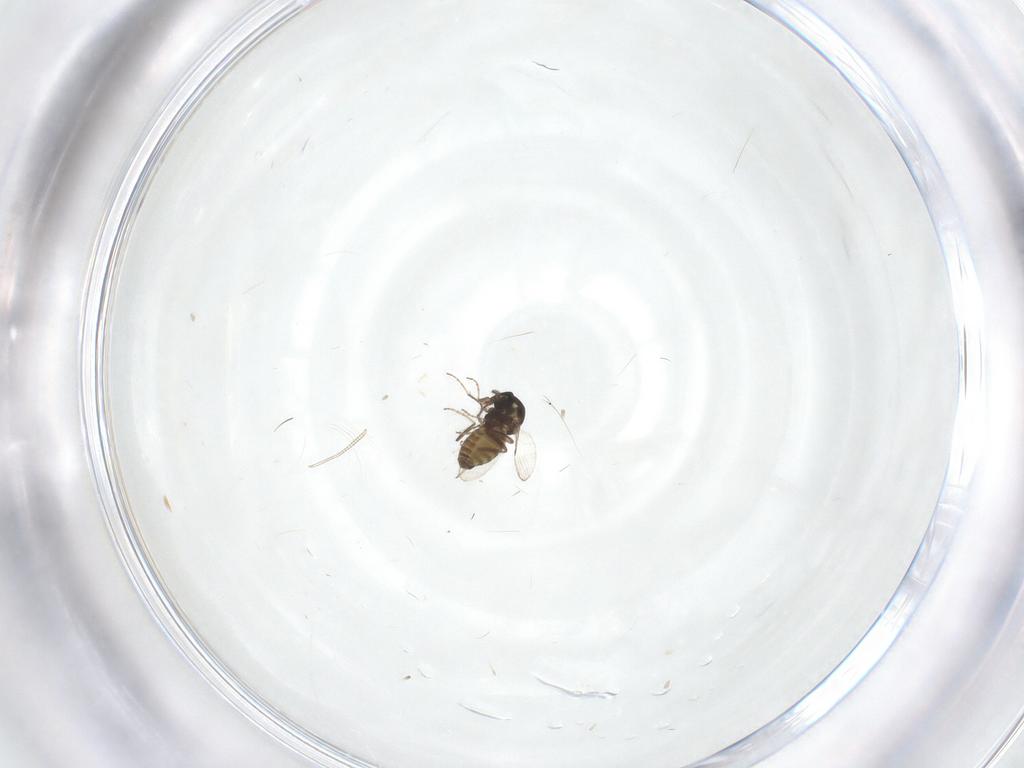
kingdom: Animalia
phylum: Arthropoda
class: Insecta
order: Diptera
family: Ceratopogonidae
